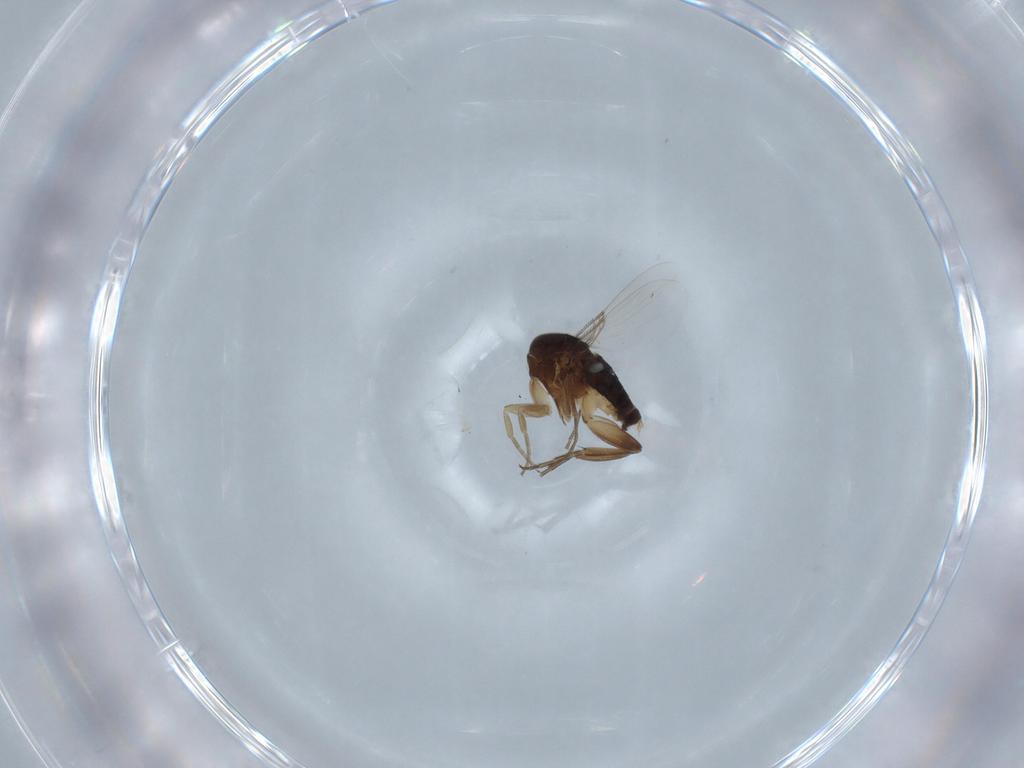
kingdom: Animalia
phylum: Arthropoda
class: Insecta
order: Diptera
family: Phoridae
